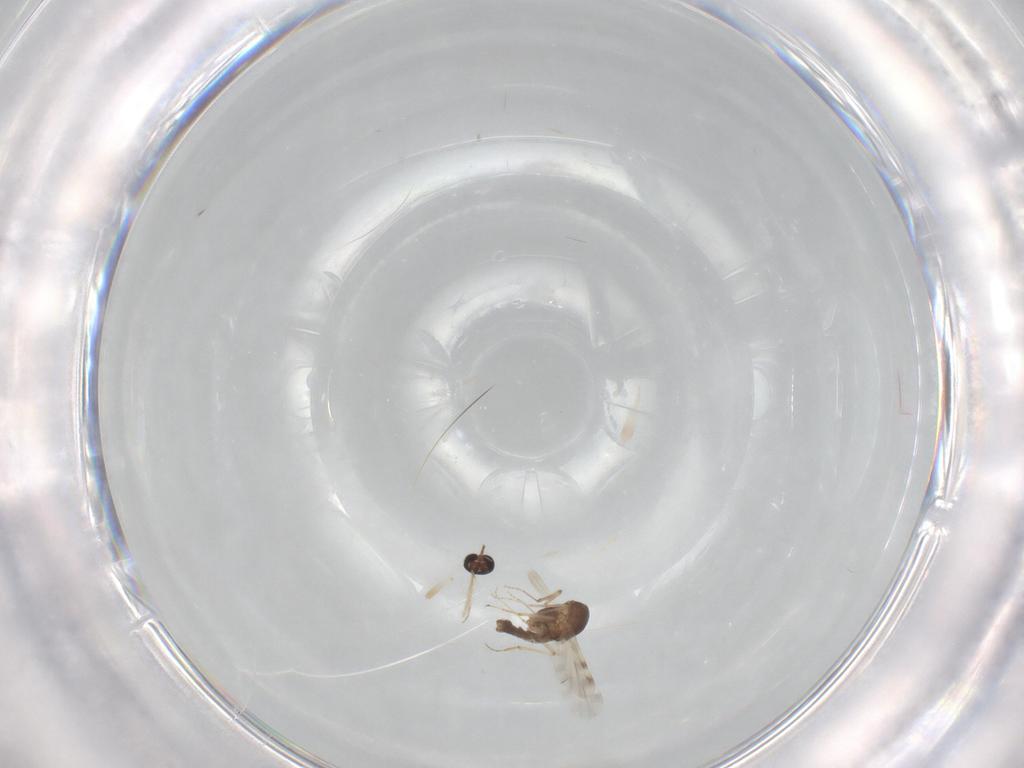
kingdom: Animalia
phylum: Arthropoda
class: Insecta
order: Diptera
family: Ceratopogonidae
